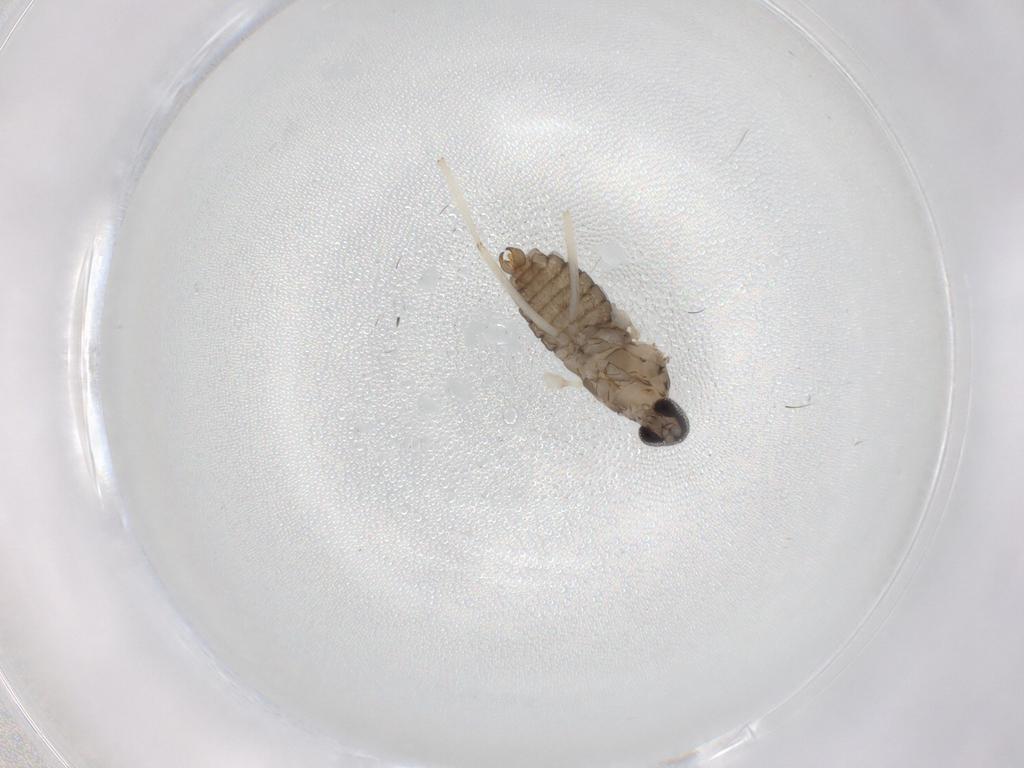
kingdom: Animalia
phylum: Arthropoda
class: Insecta
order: Diptera
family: Cecidomyiidae
